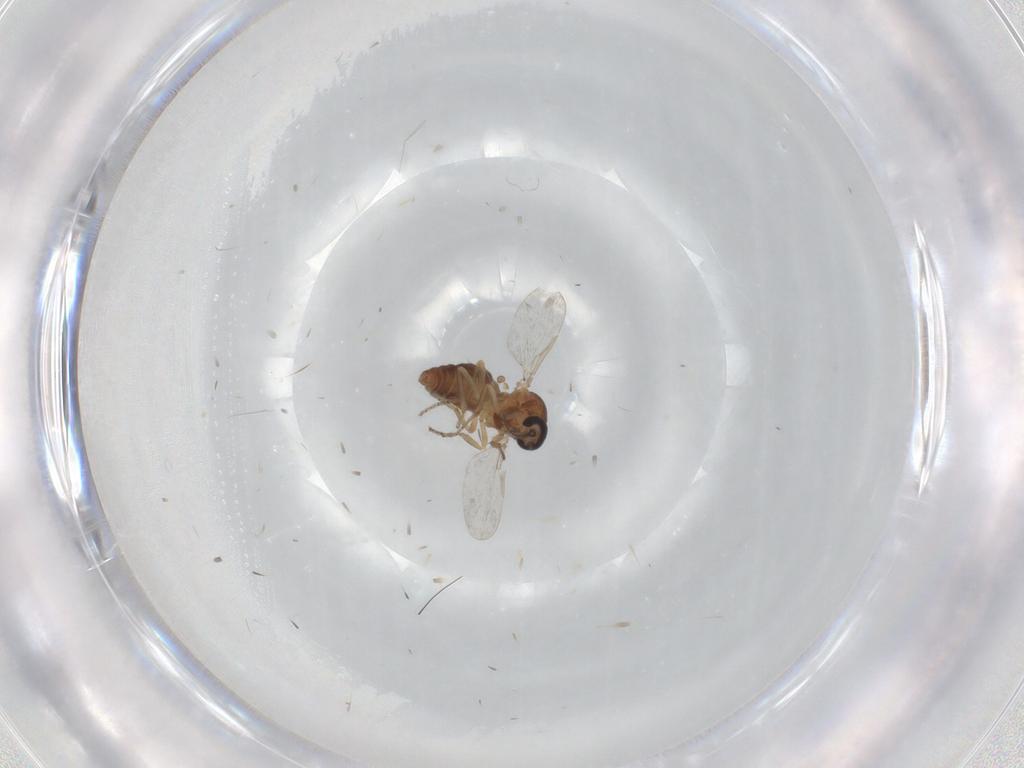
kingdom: Animalia
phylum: Arthropoda
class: Insecta
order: Diptera
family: Ceratopogonidae
